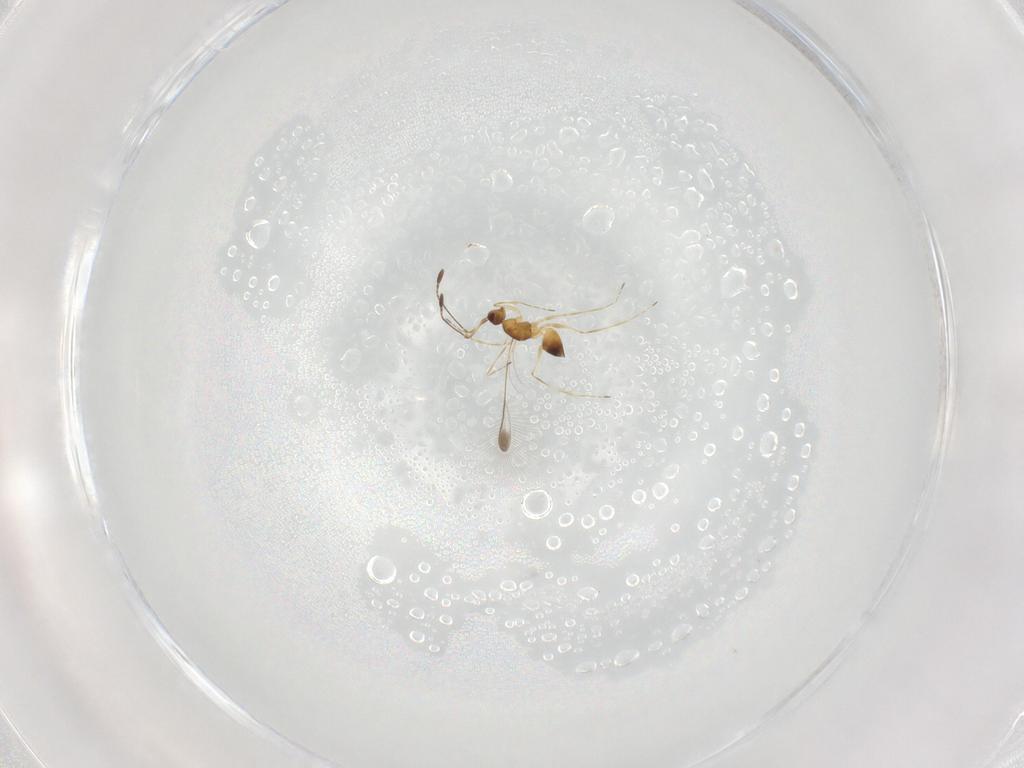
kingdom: Animalia
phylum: Arthropoda
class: Insecta
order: Hymenoptera
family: Mymaridae
